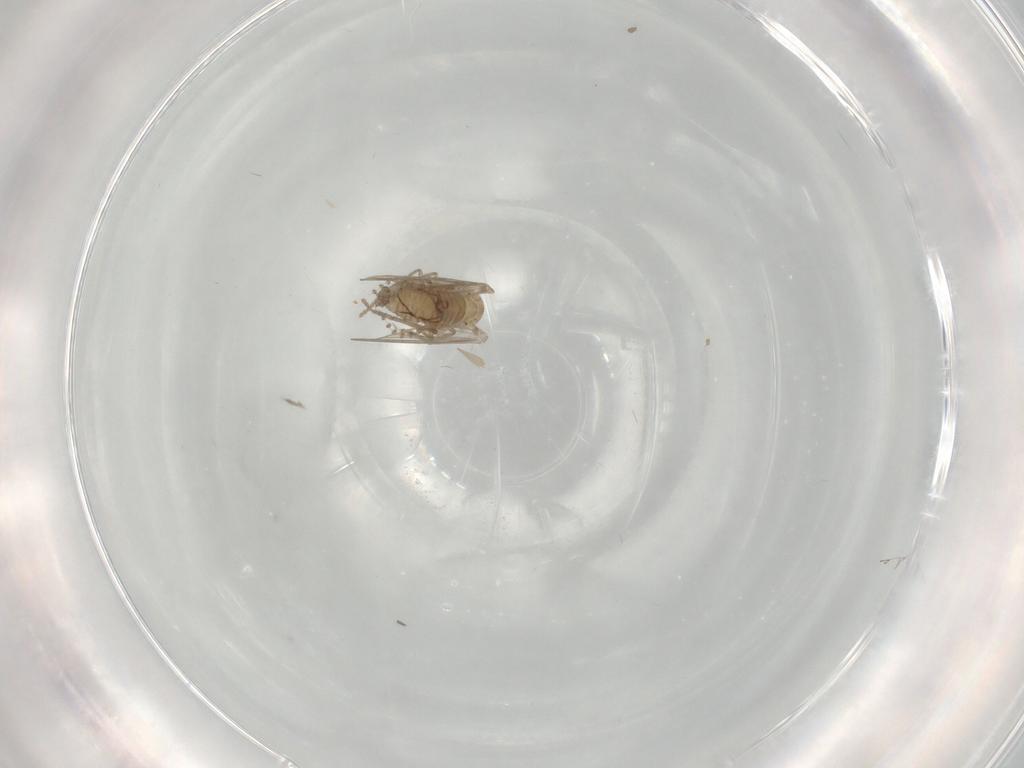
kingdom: Animalia
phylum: Arthropoda
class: Insecta
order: Diptera
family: Psychodidae
